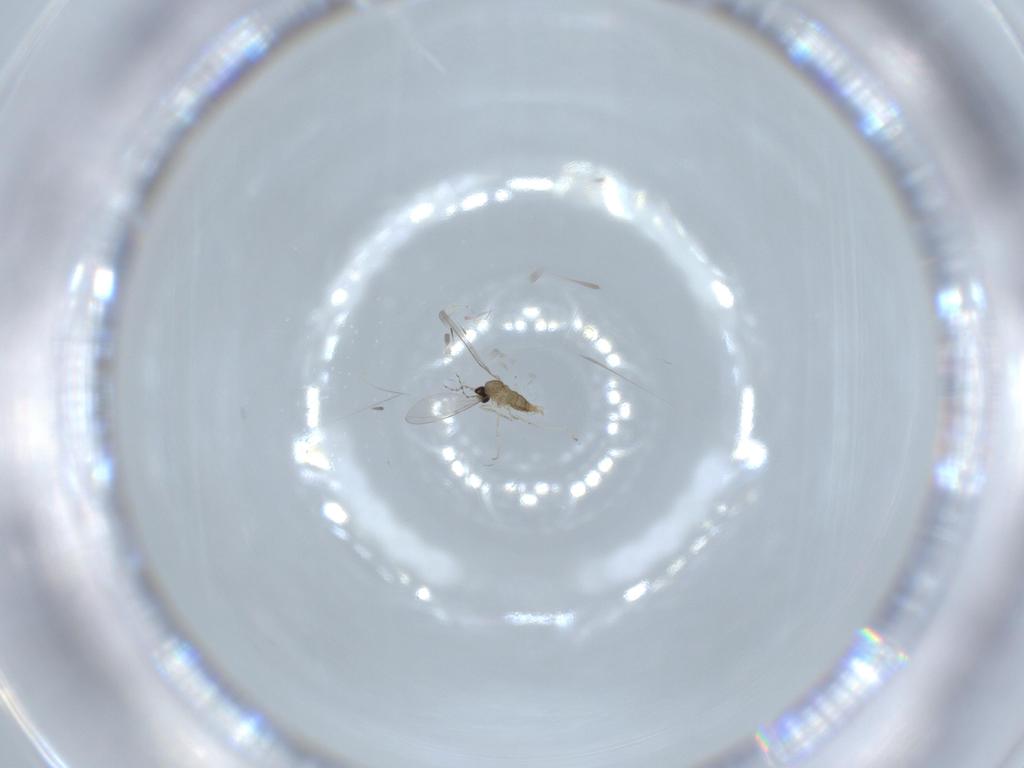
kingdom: Animalia
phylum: Arthropoda
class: Insecta
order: Diptera
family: Cecidomyiidae
